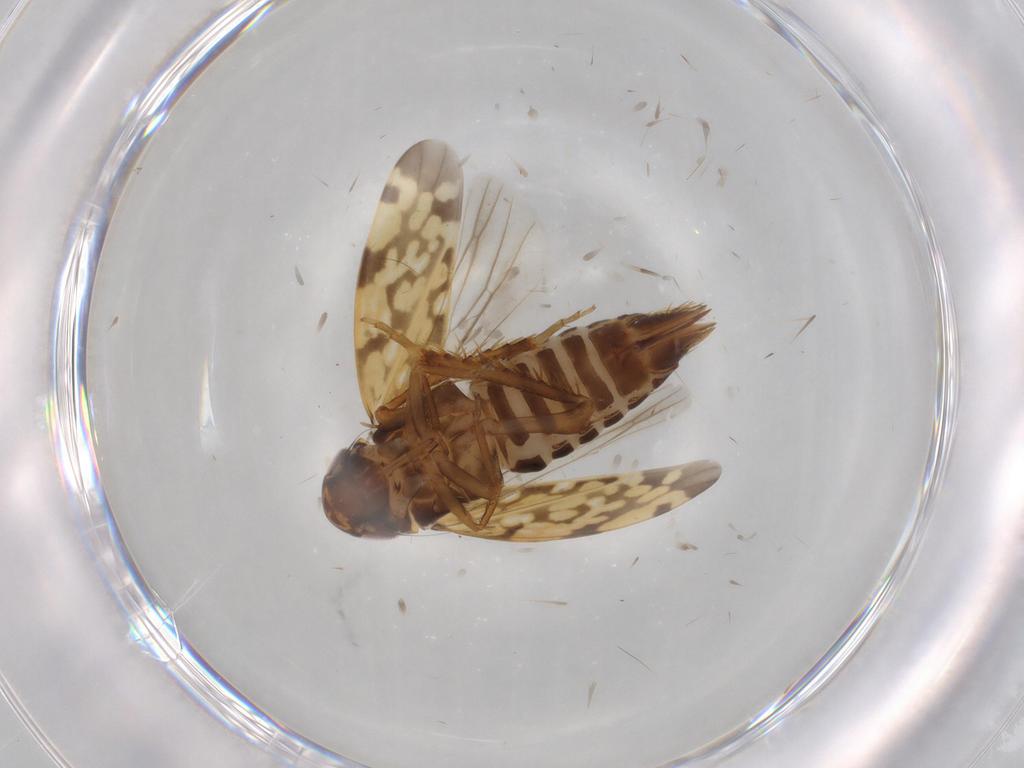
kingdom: Animalia
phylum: Arthropoda
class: Insecta
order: Hemiptera
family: Cicadellidae
